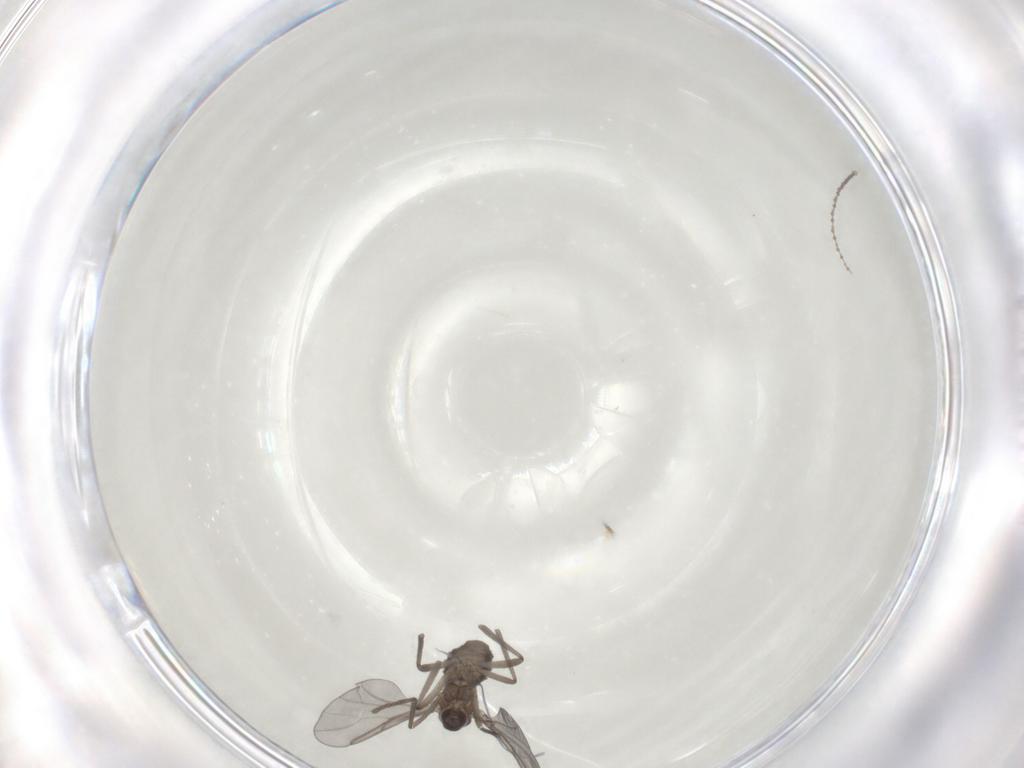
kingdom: Animalia
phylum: Arthropoda
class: Insecta
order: Diptera
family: Cecidomyiidae
